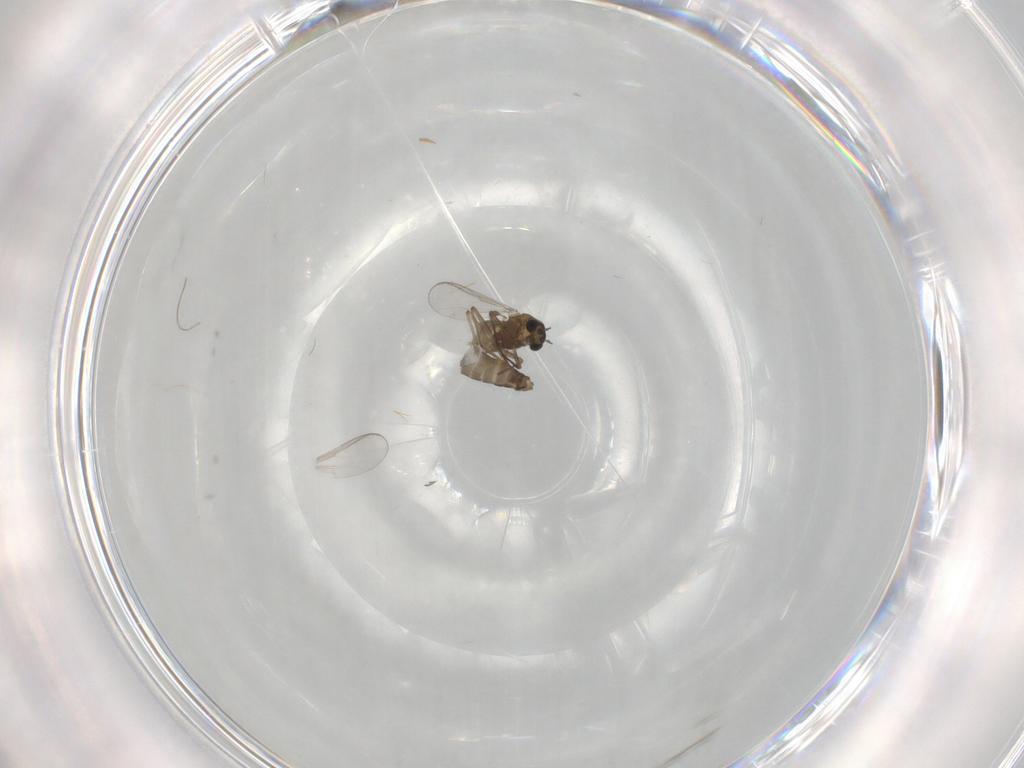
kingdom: Animalia
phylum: Arthropoda
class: Insecta
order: Diptera
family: Chironomidae
